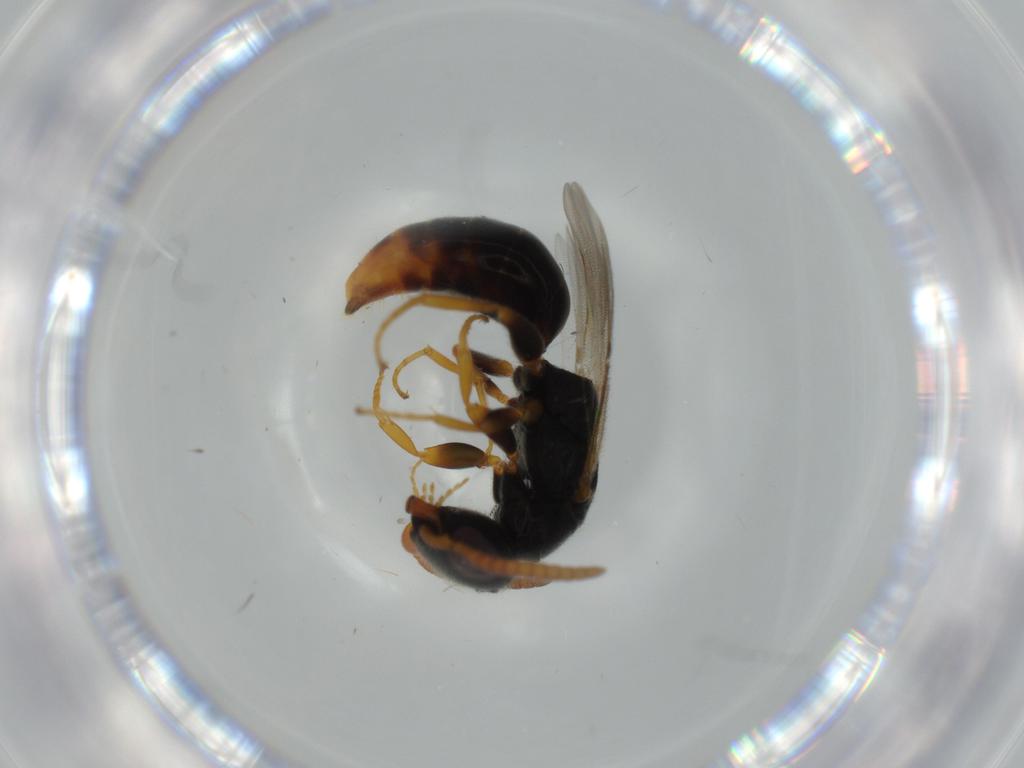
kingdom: Animalia
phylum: Arthropoda
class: Insecta
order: Hymenoptera
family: Bethylidae
